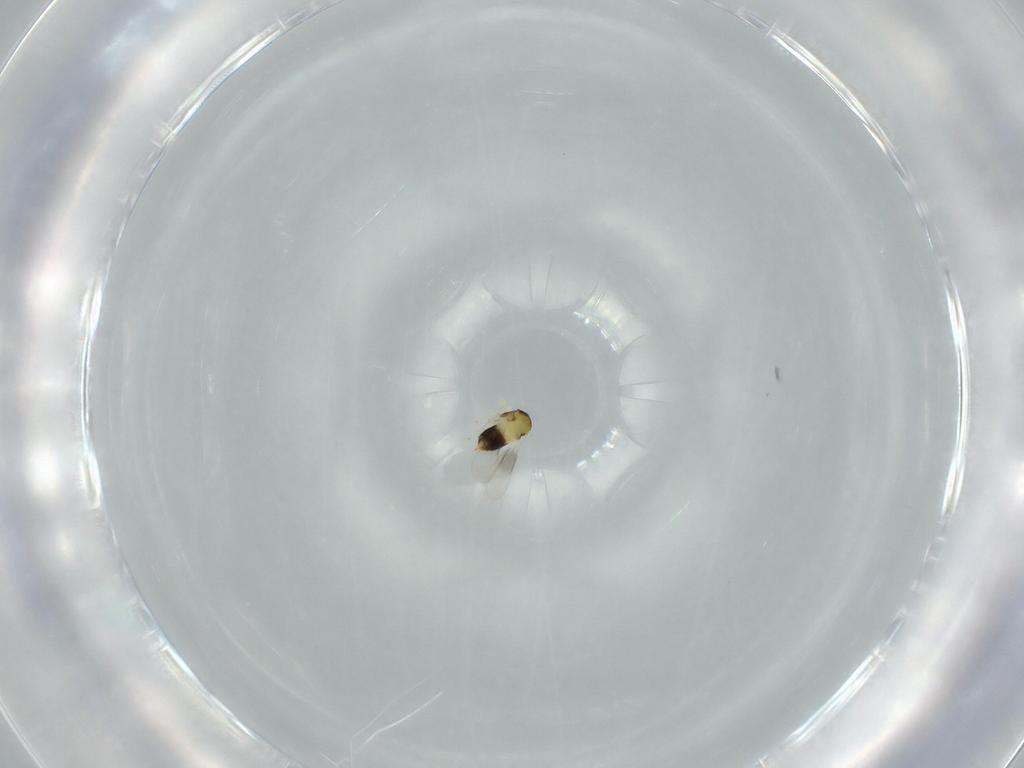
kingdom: Animalia
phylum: Arthropoda
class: Insecta
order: Hymenoptera
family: Aphelinidae
